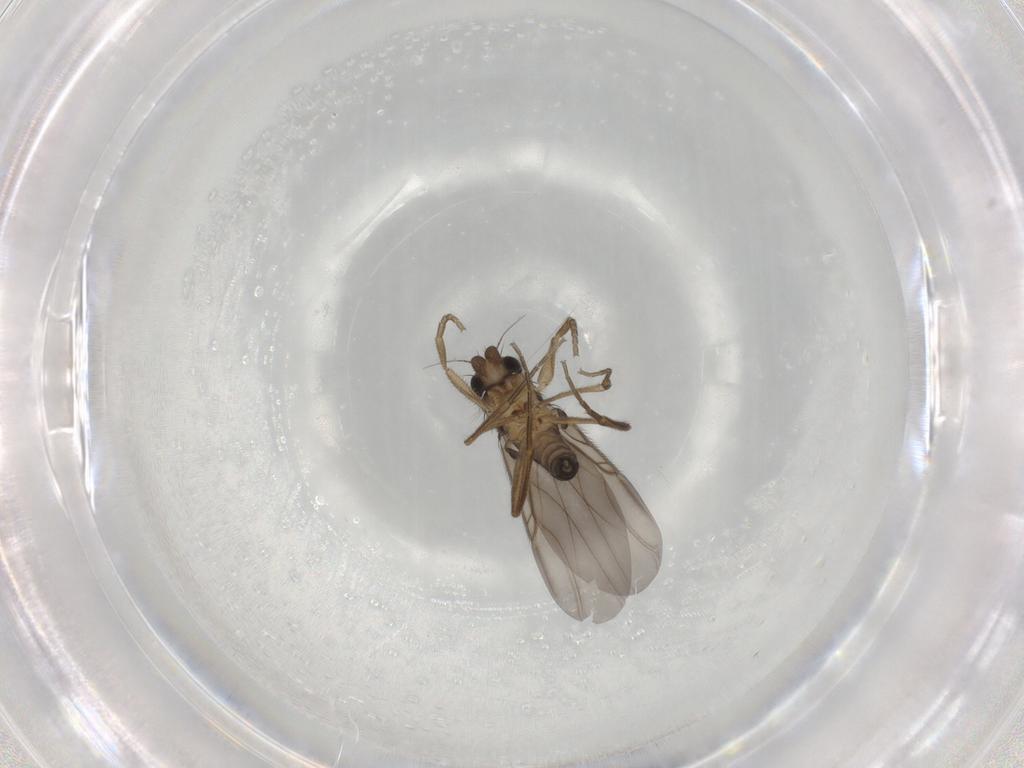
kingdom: Animalia
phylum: Arthropoda
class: Insecta
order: Diptera
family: Phoridae
